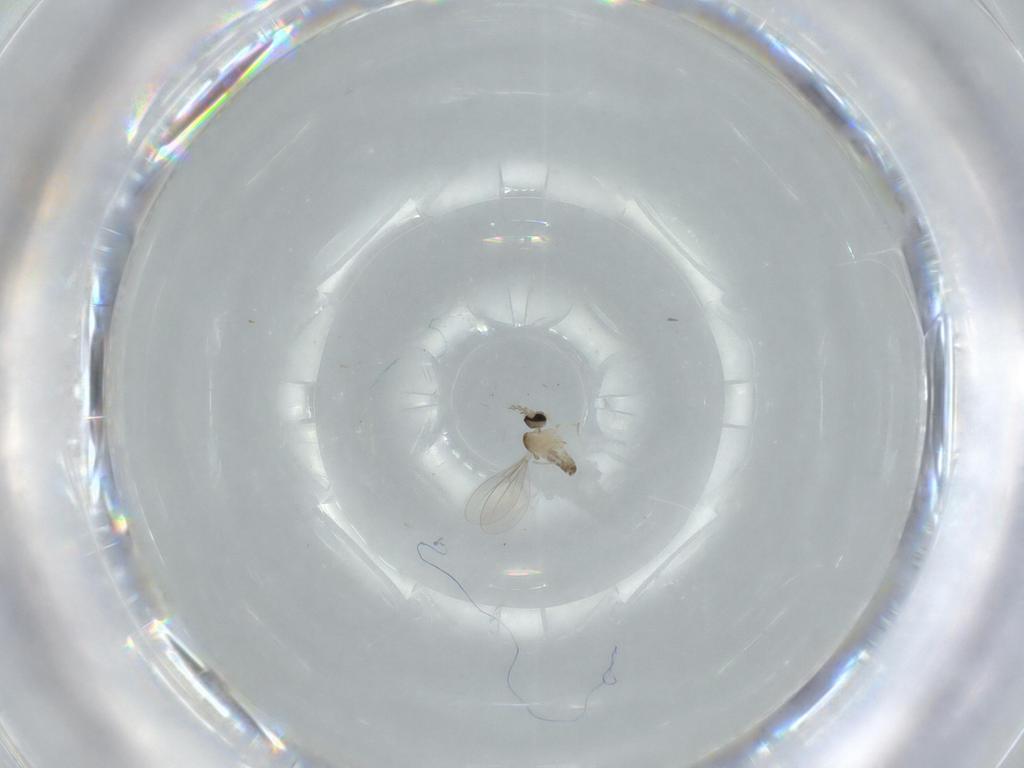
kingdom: Animalia
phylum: Arthropoda
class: Insecta
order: Diptera
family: Cecidomyiidae
